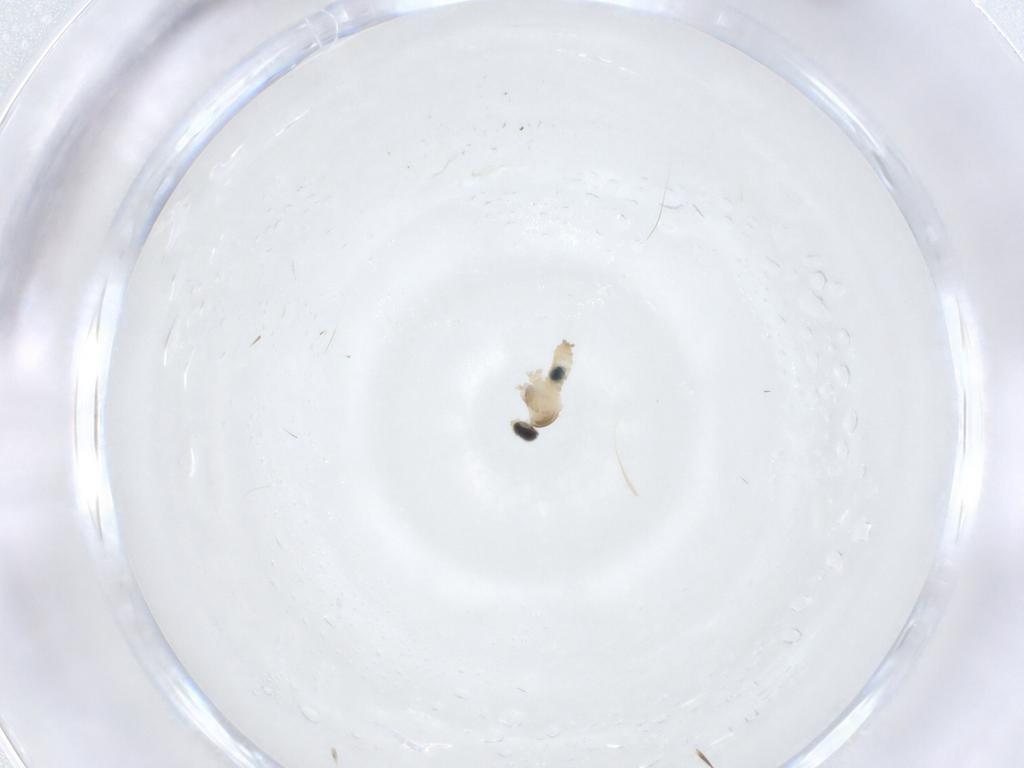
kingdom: Animalia
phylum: Arthropoda
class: Insecta
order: Diptera
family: Cecidomyiidae
